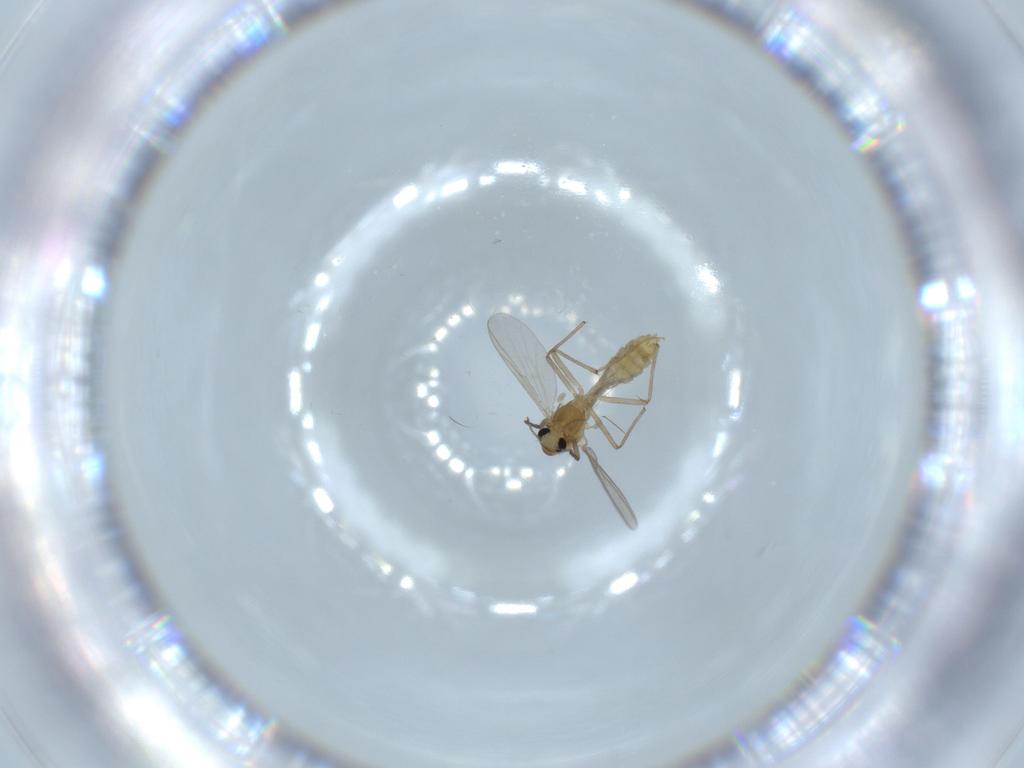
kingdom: Animalia
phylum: Arthropoda
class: Insecta
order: Diptera
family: Chironomidae
